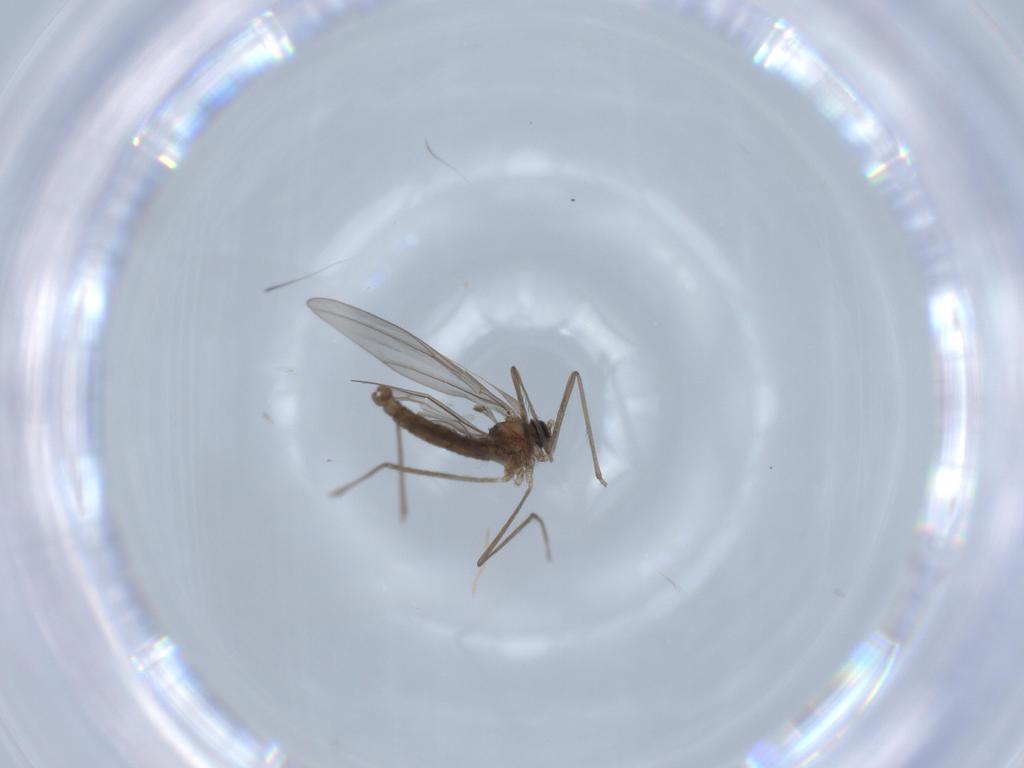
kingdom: Animalia
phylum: Arthropoda
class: Insecta
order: Diptera
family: Cecidomyiidae
